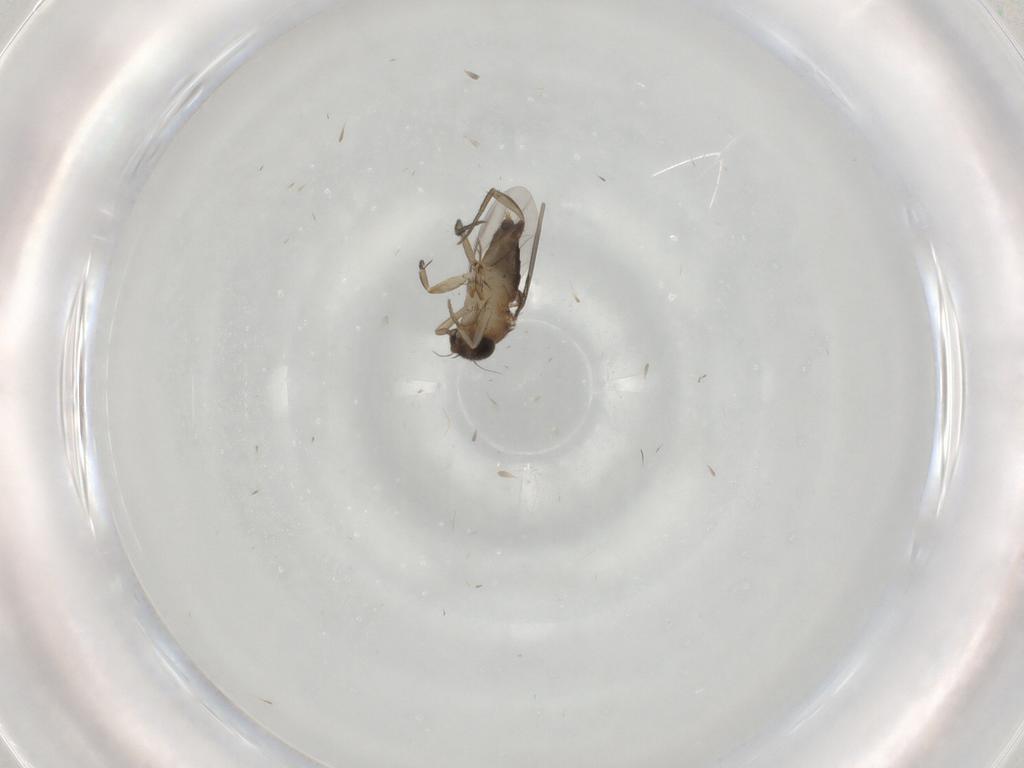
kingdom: Animalia
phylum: Arthropoda
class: Insecta
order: Diptera
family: Phoridae
